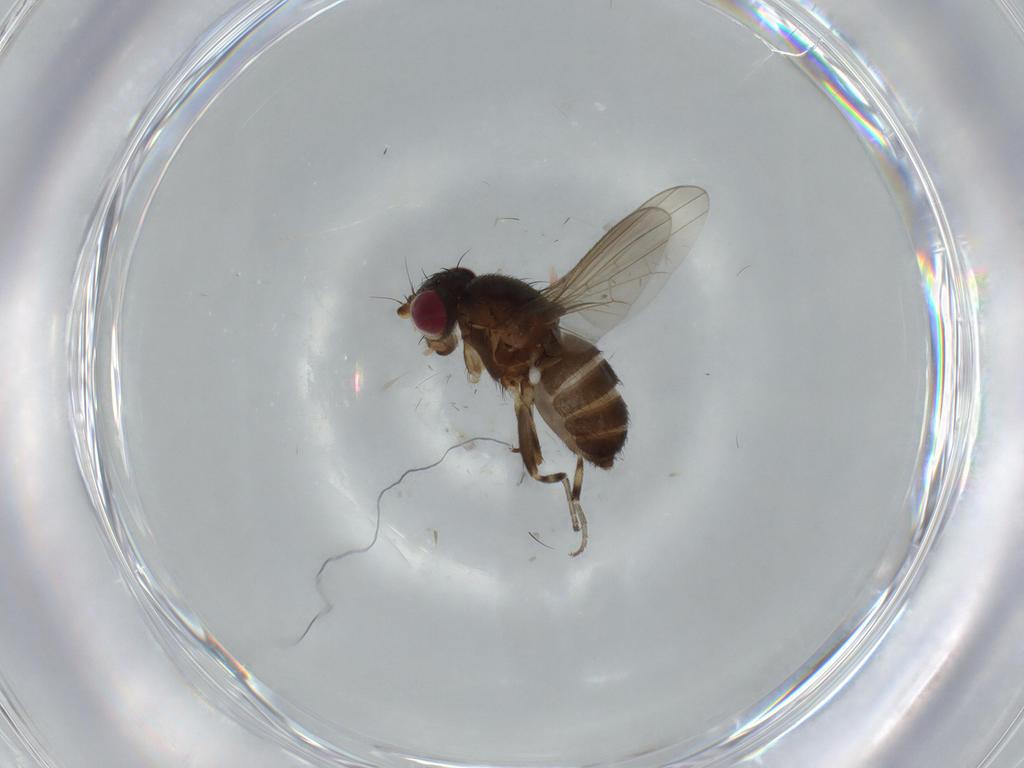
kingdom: Animalia
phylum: Arthropoda
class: Insecta
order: Diptera
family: Heleomyzidae
